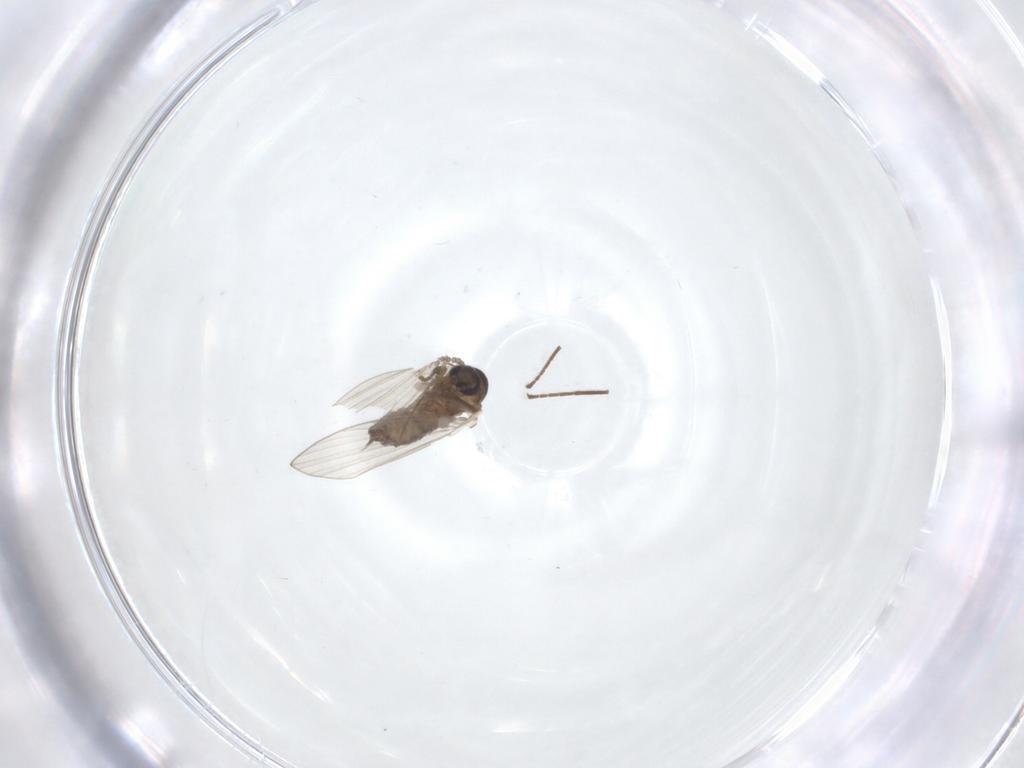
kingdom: Animalia
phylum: Arthropoda
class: Insecta
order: Diptera
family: Psychodidae
